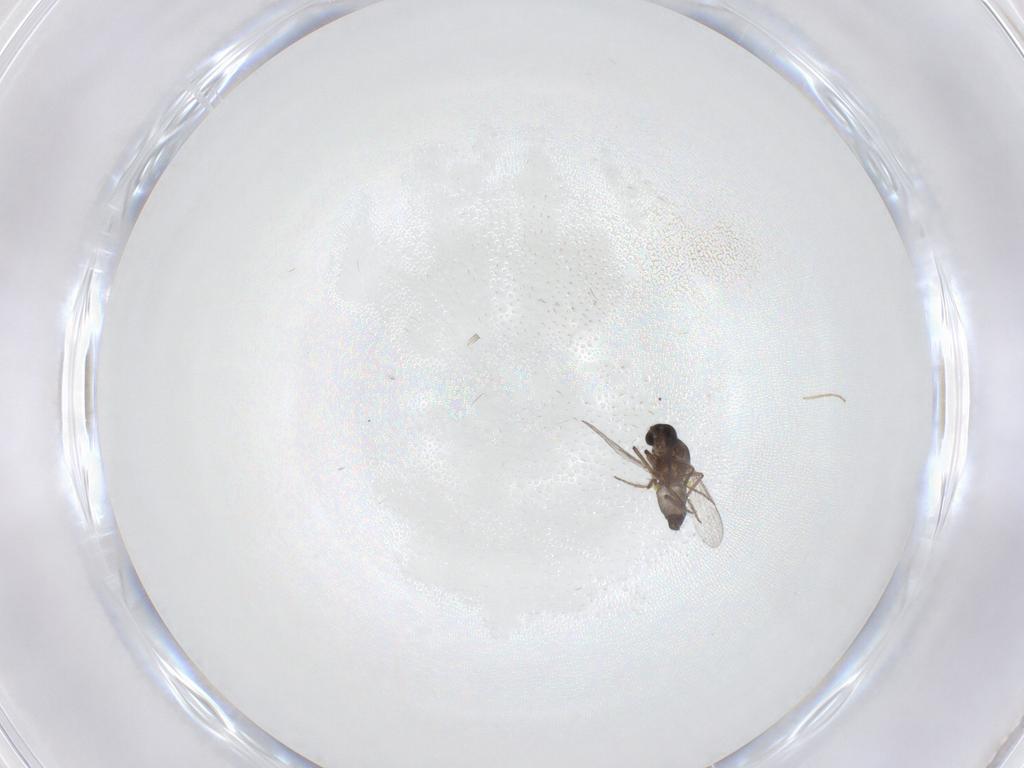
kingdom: Animalia
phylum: Arthropoda
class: Insecta
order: Diptera
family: Chironomidae
